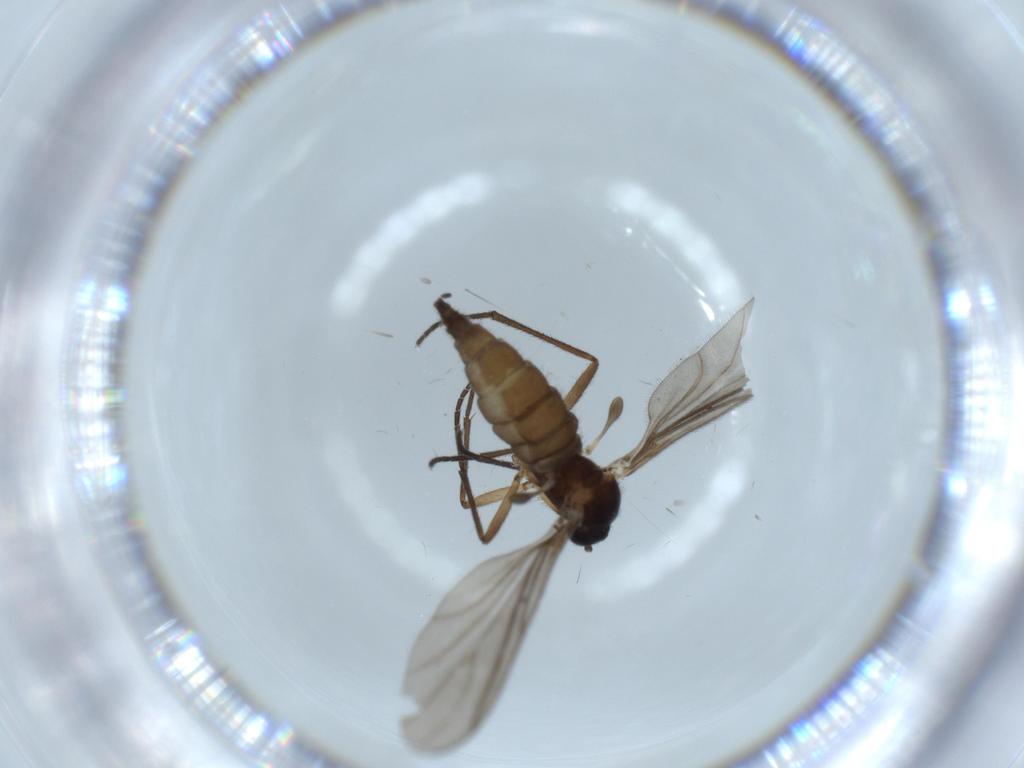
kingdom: Animalia
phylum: Arthropoda
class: Insecta
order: Diptera
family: Sciaridae
